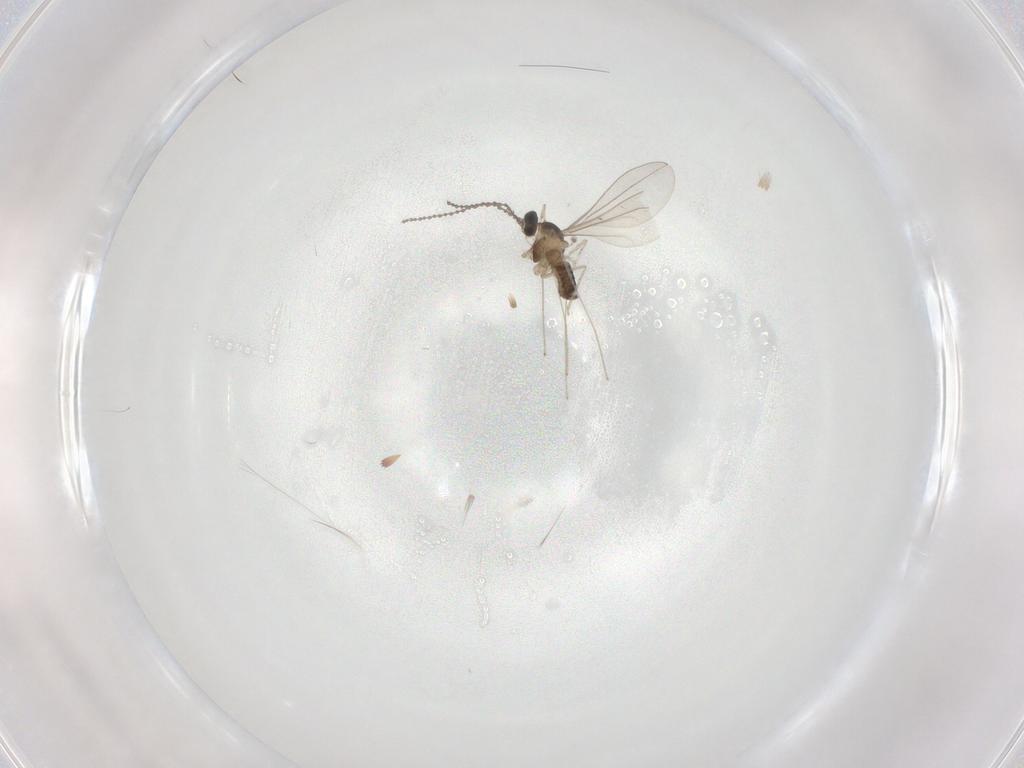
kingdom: Animalia
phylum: Arthropoda
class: Insecta
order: Diptera
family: Cecidomyiidae
